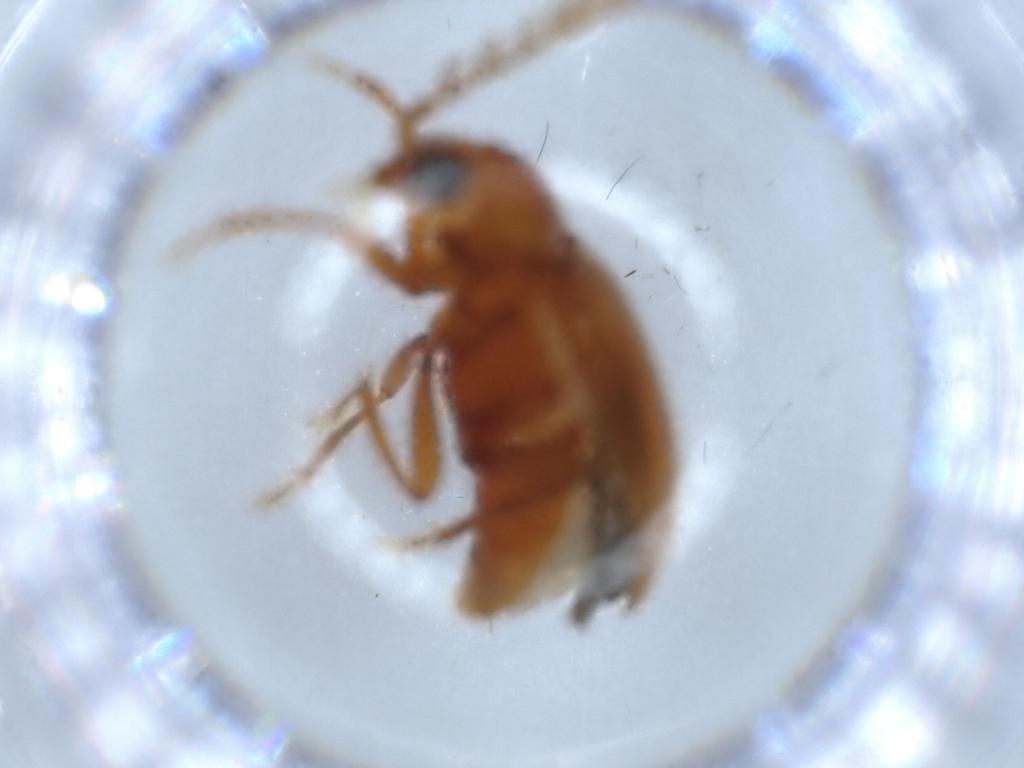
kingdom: Animalia
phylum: Arthropoda
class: Insecta
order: Coleoptera
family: Ptilodactylidae
